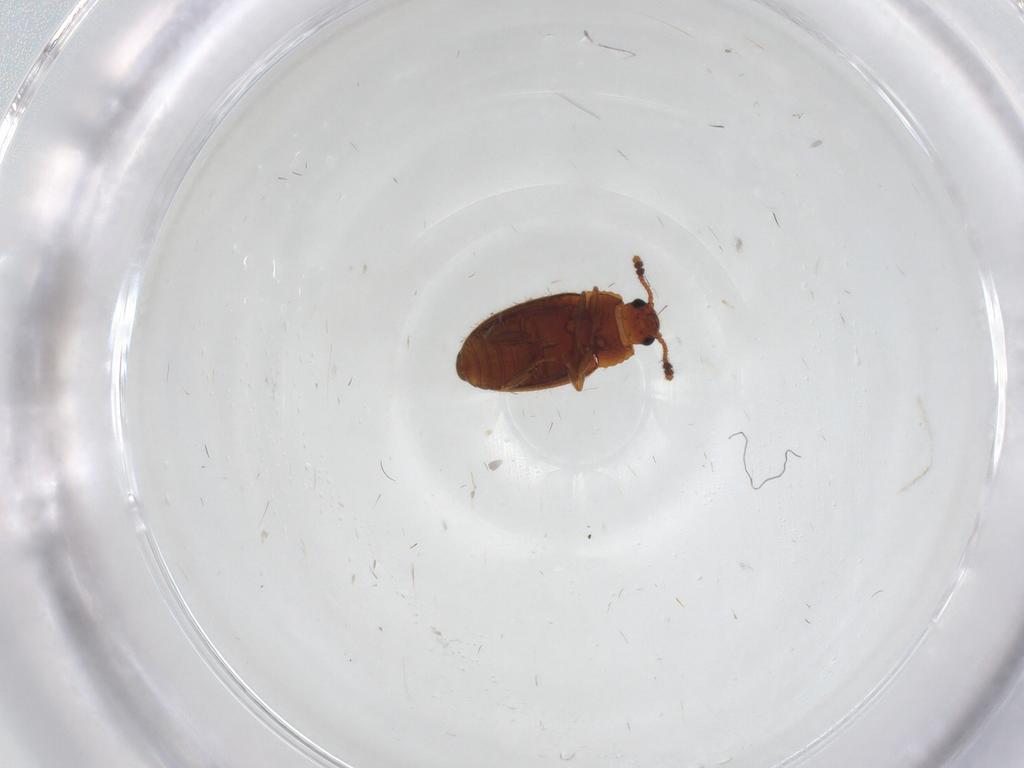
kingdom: Animalia
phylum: Arthropoda
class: Insecta
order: Coleoptera
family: Erotylidae
